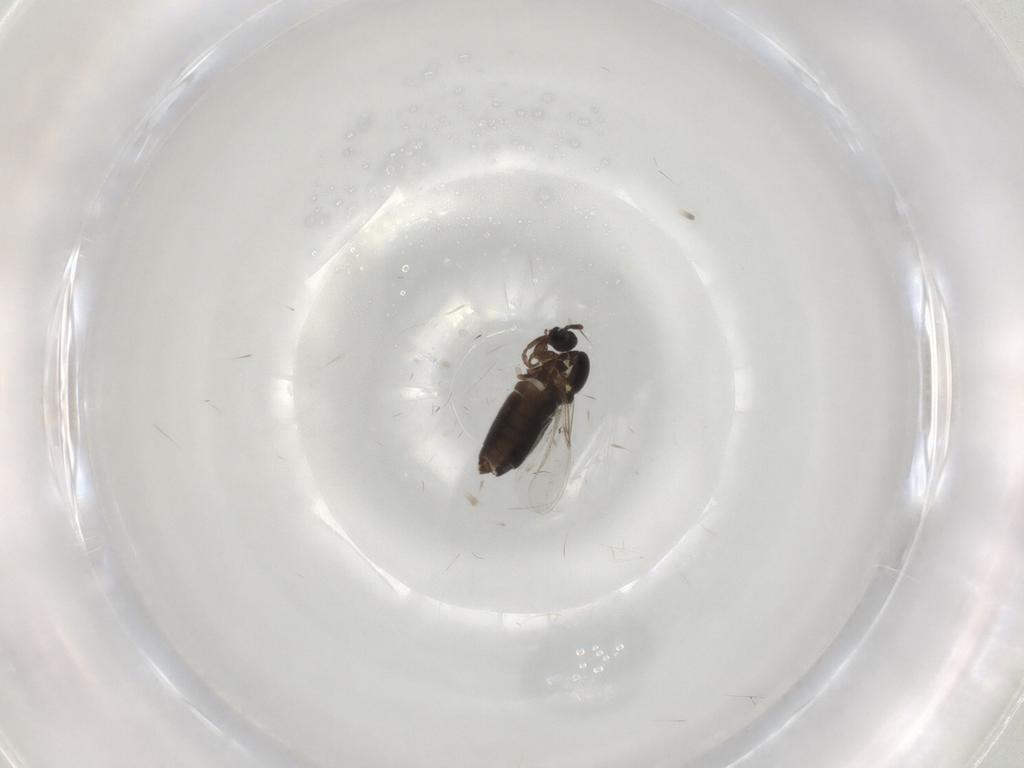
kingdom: Animalia
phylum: Arthropoda
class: Insecta
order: Diptera
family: Scatopsidae
